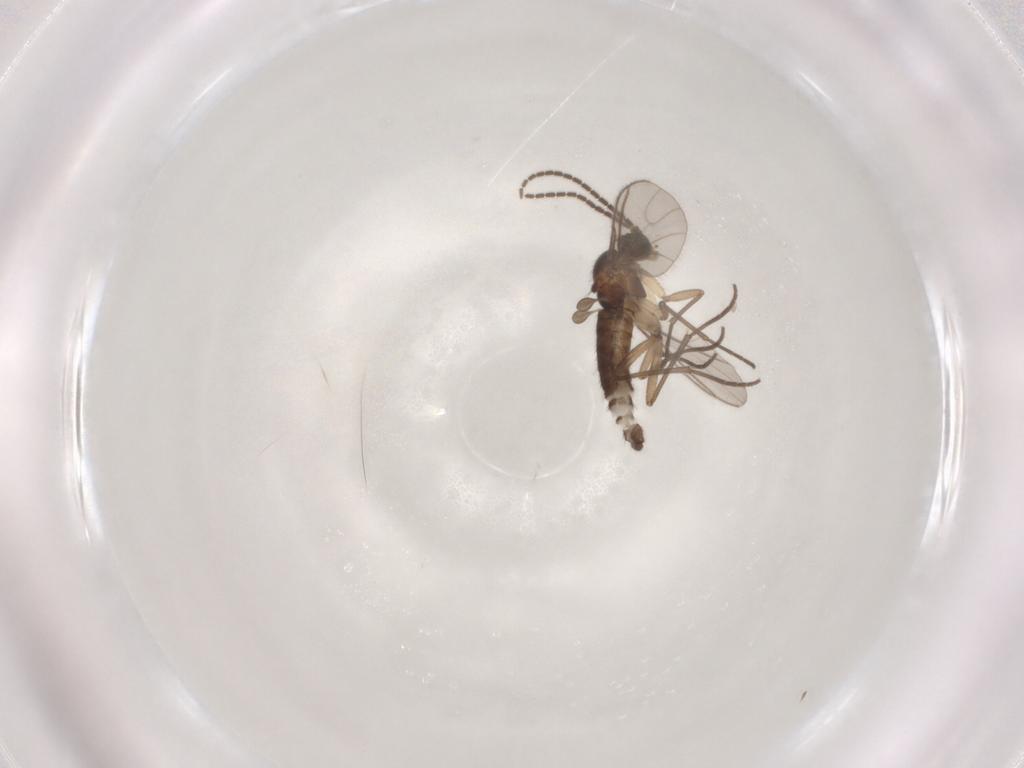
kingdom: Animalia
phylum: Arthropoda
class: Insecta
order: Diptera
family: Sciaridae
